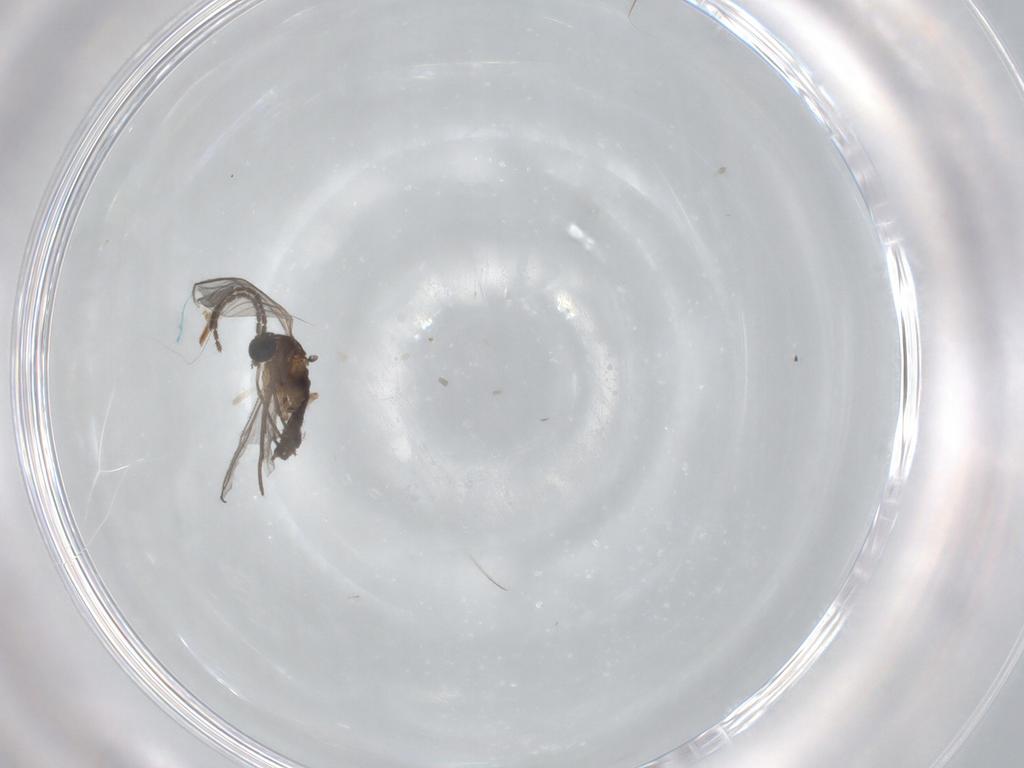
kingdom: Animalia
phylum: Arthropoda
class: Insecta
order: Diptera
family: Sciaridae
